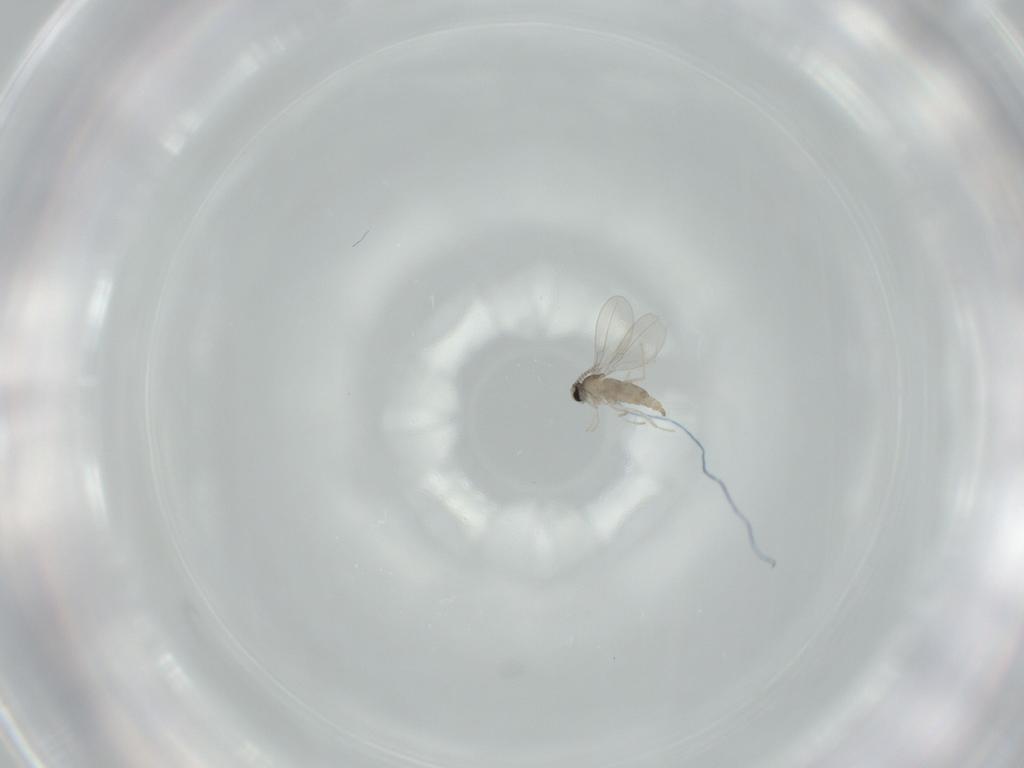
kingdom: Animalia
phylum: Arthropoda
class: Insecta
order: Diptera
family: Cecidomyiidae
